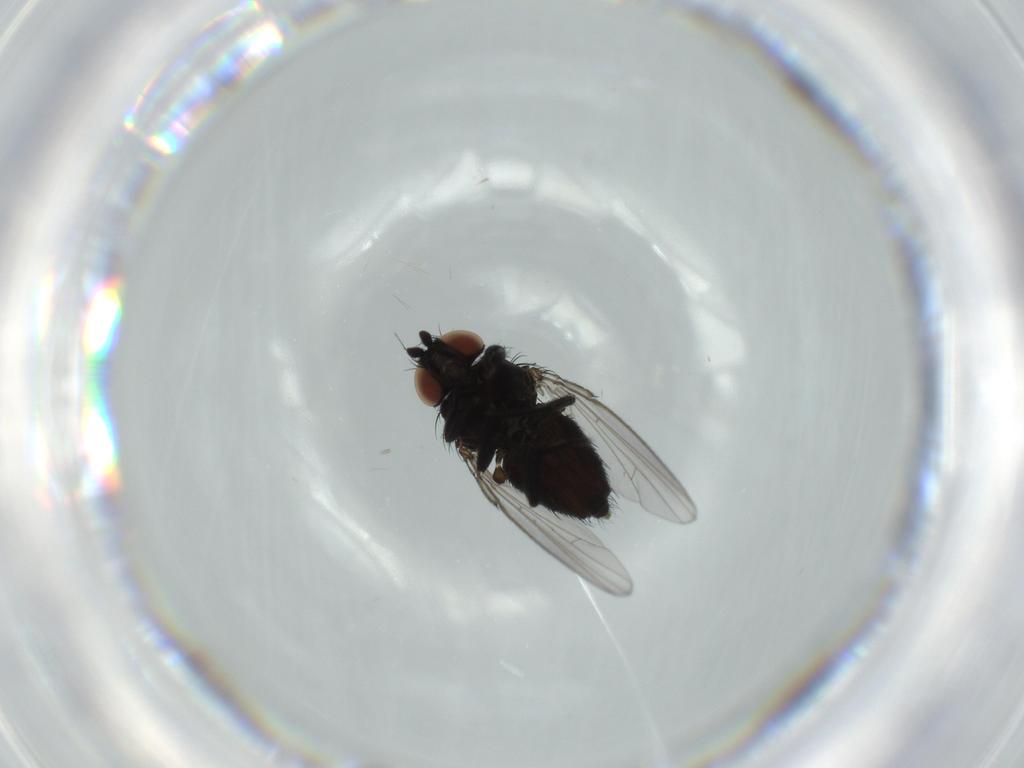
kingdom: Animalia
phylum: Arthropoda
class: Insecta
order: Diptera
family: Milichiidae
